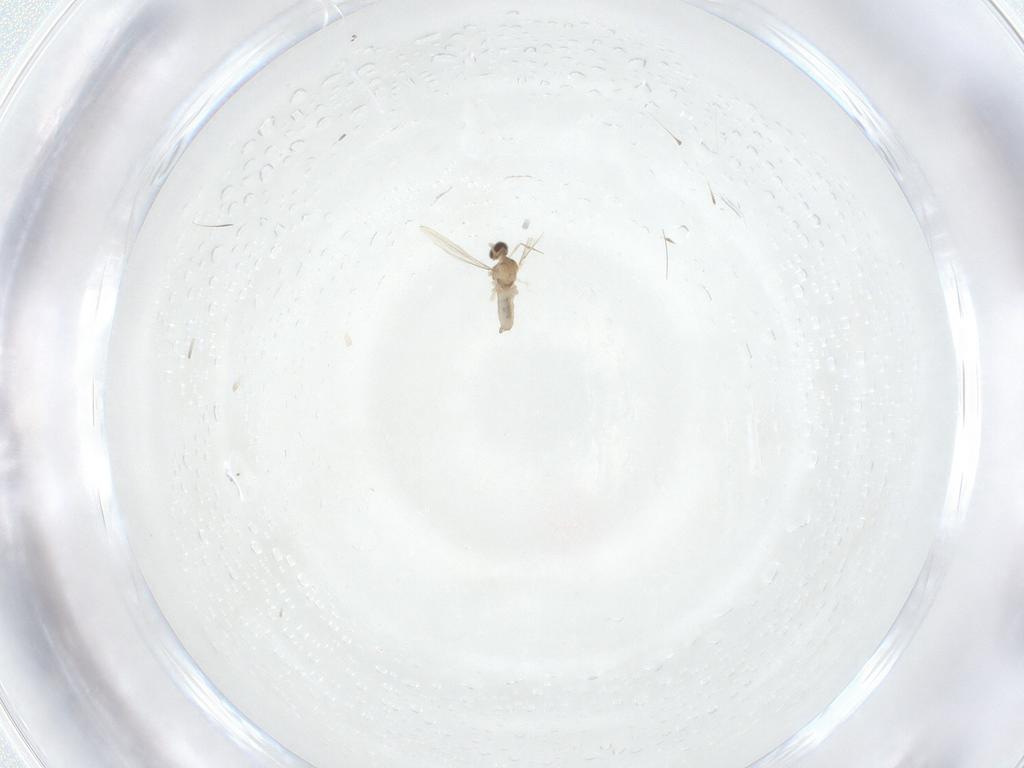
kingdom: Animalia
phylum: Arthropoda
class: Insecta
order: Diptera
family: Cecidomyiidae
